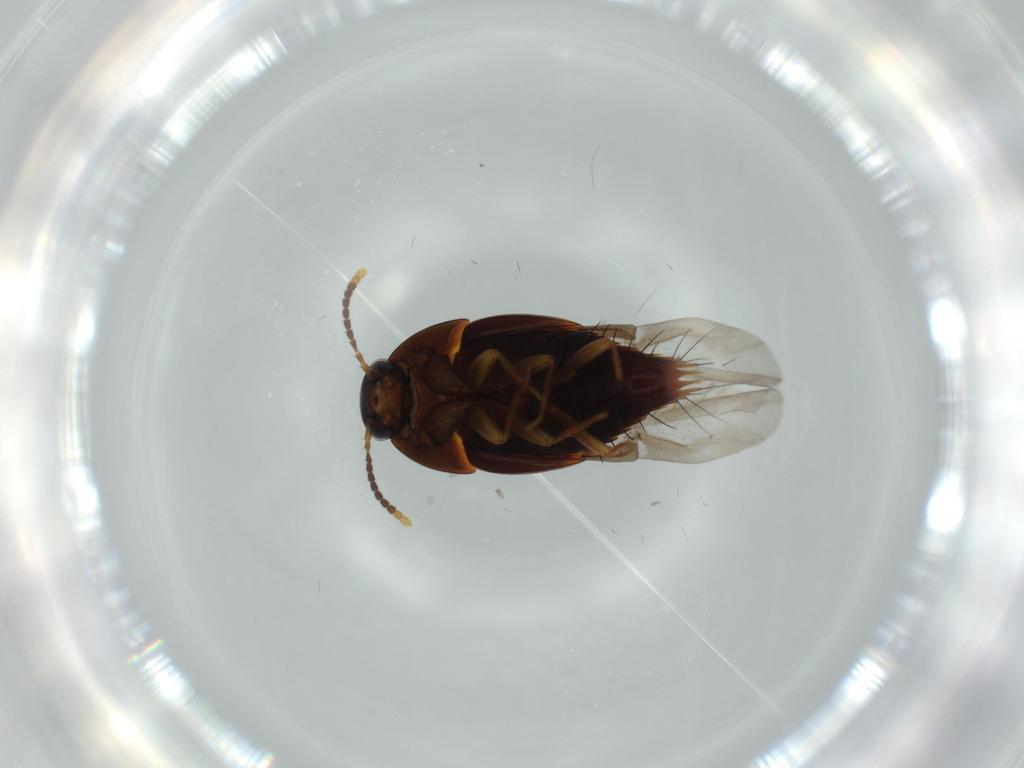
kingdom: Animalia
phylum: Arthropoda
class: Insecta
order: Coleoptera
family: Staphylinidae
